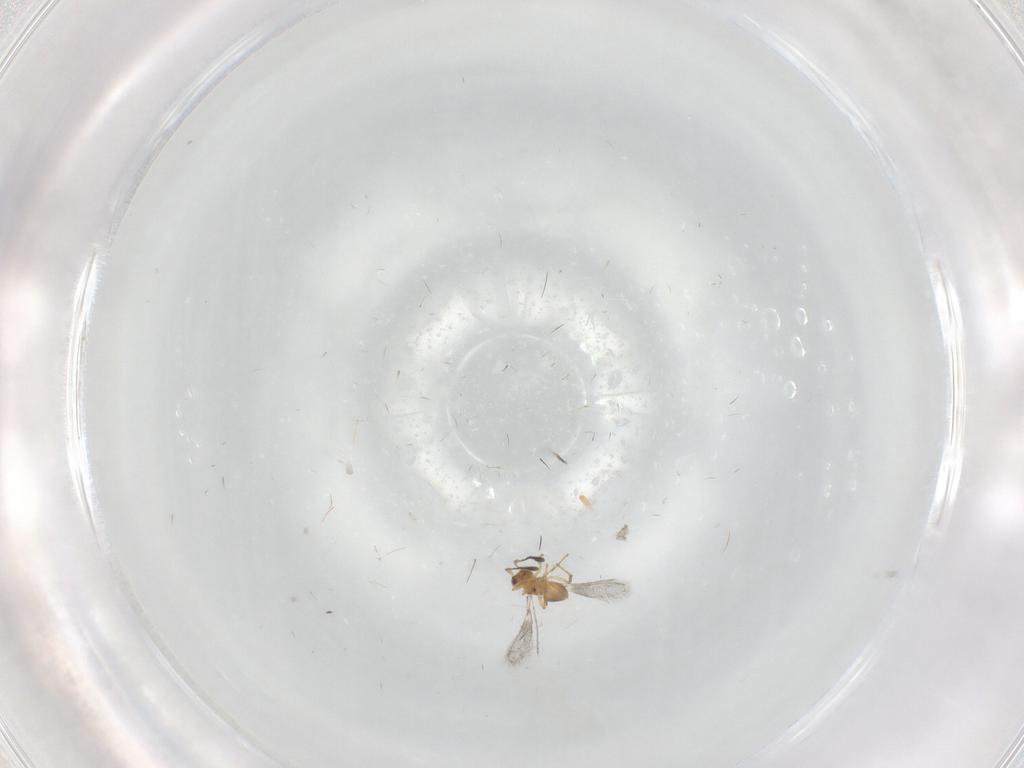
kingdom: Animalia
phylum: Arthropoda
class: Insecta
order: Hymenoptera
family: Mymaridae
